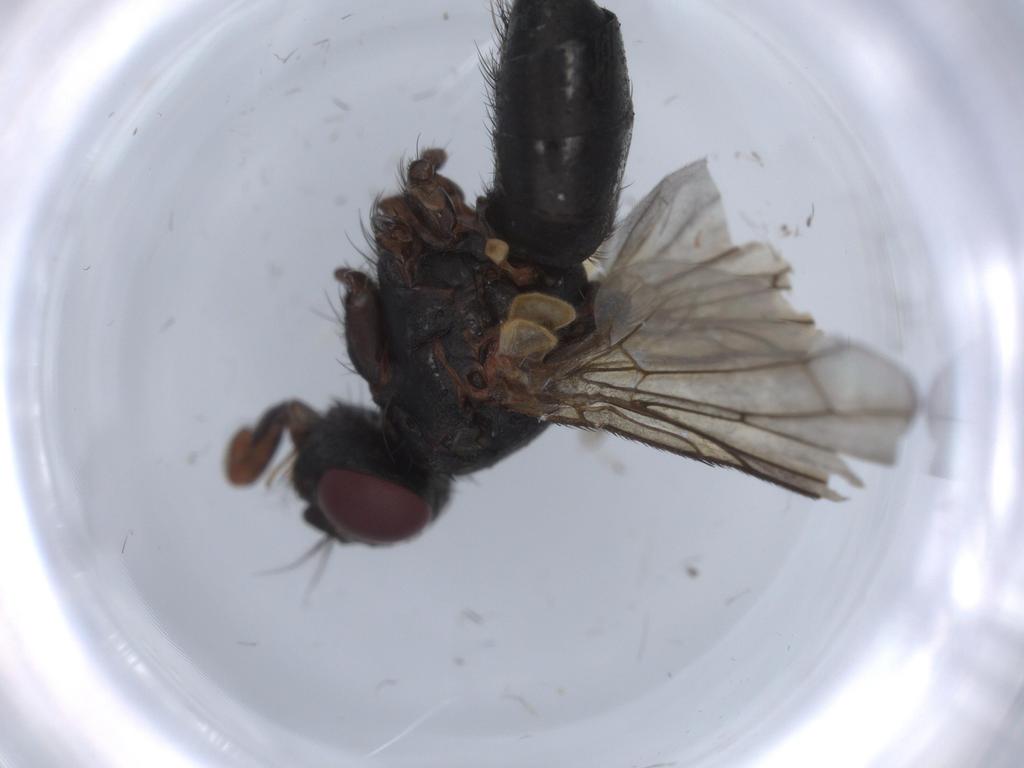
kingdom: Animalia
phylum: Arthropoda
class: Insecta
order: Diptera
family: Calliphoridae
